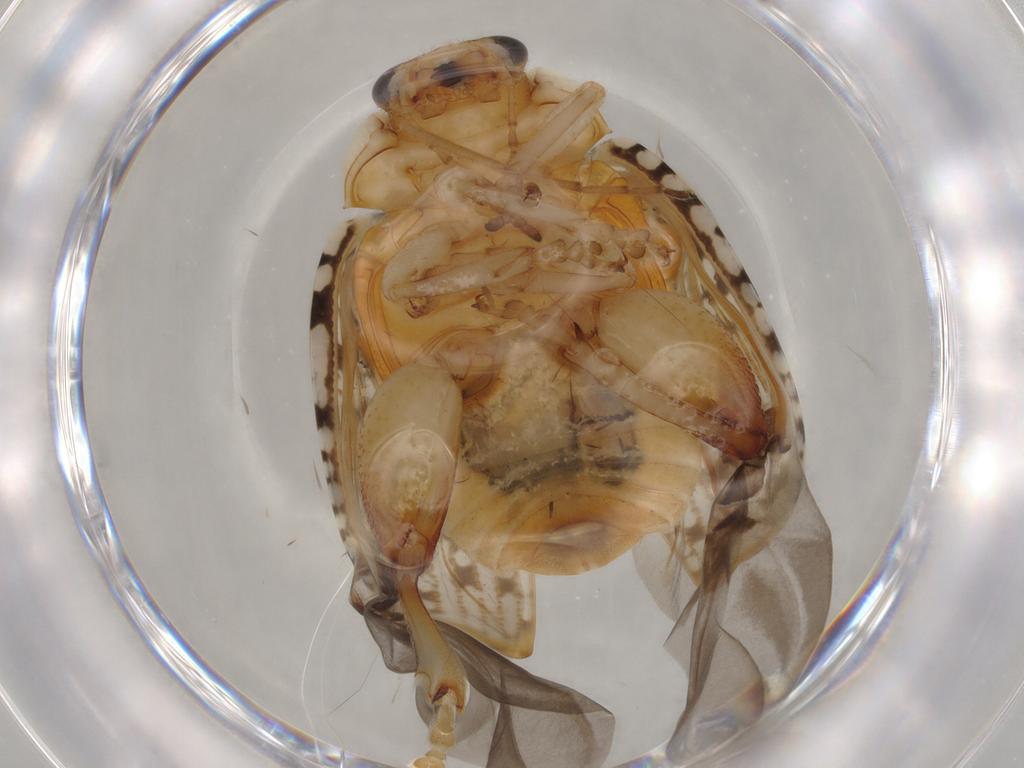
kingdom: Animalia
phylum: Arthropoda
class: Insecta
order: Coleoptera
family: Chrysomelidae
